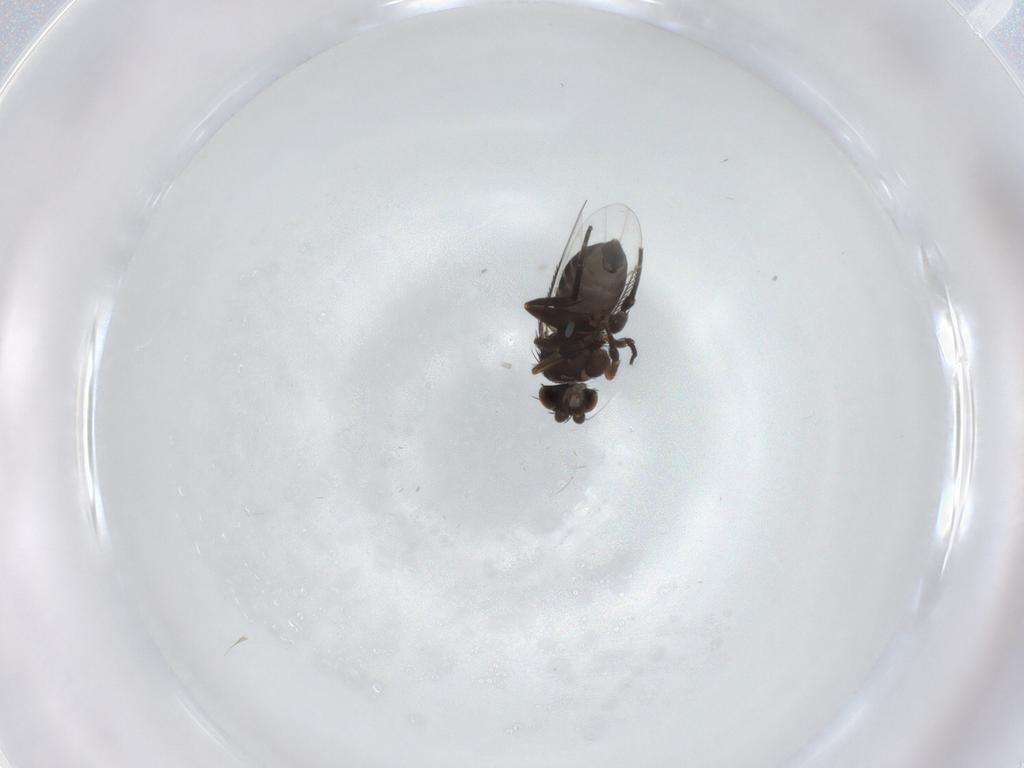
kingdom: Animalia
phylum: Arthropoda
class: Insecta
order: Diptera
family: Phoridae
